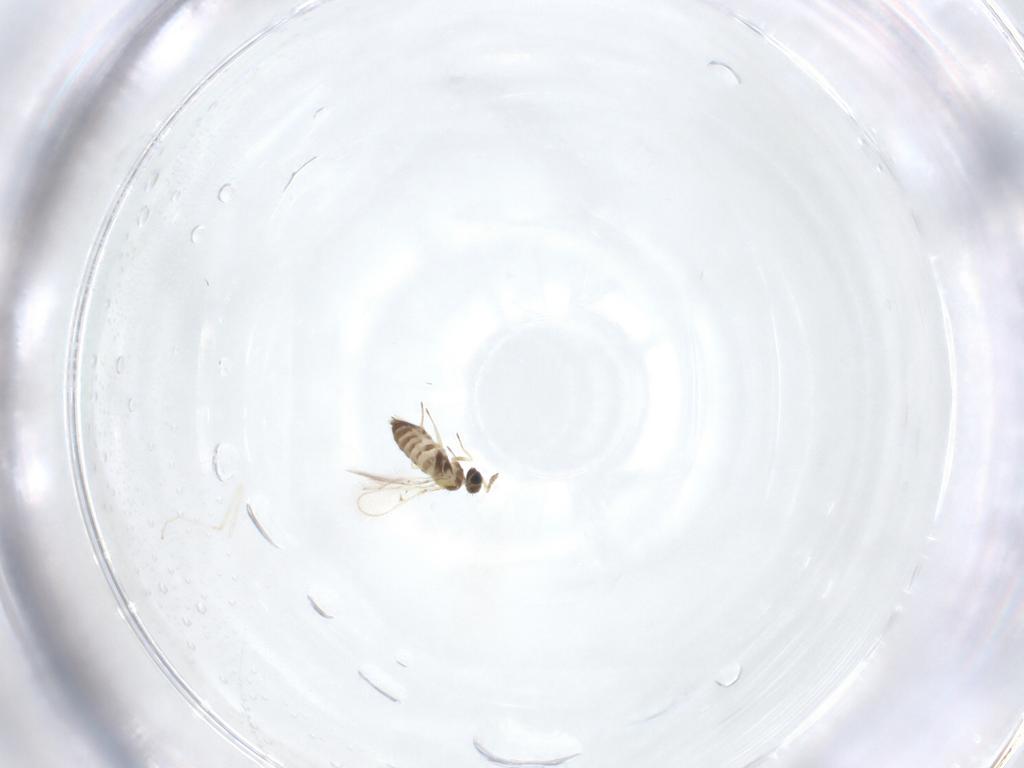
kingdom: Animalia
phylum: Arthropoda
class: Insecta
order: Hymenoptera
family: Trichogrammatidae
